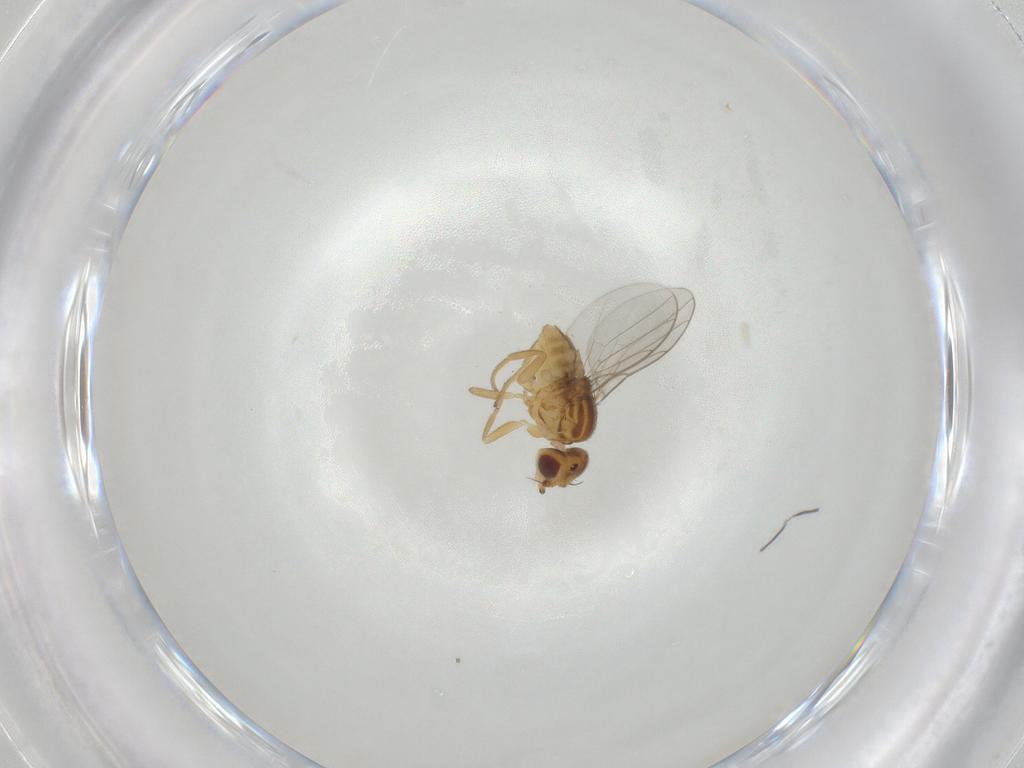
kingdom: Animalia
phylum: Arthropoda
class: Insecta
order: Diptera
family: Chloropidae
